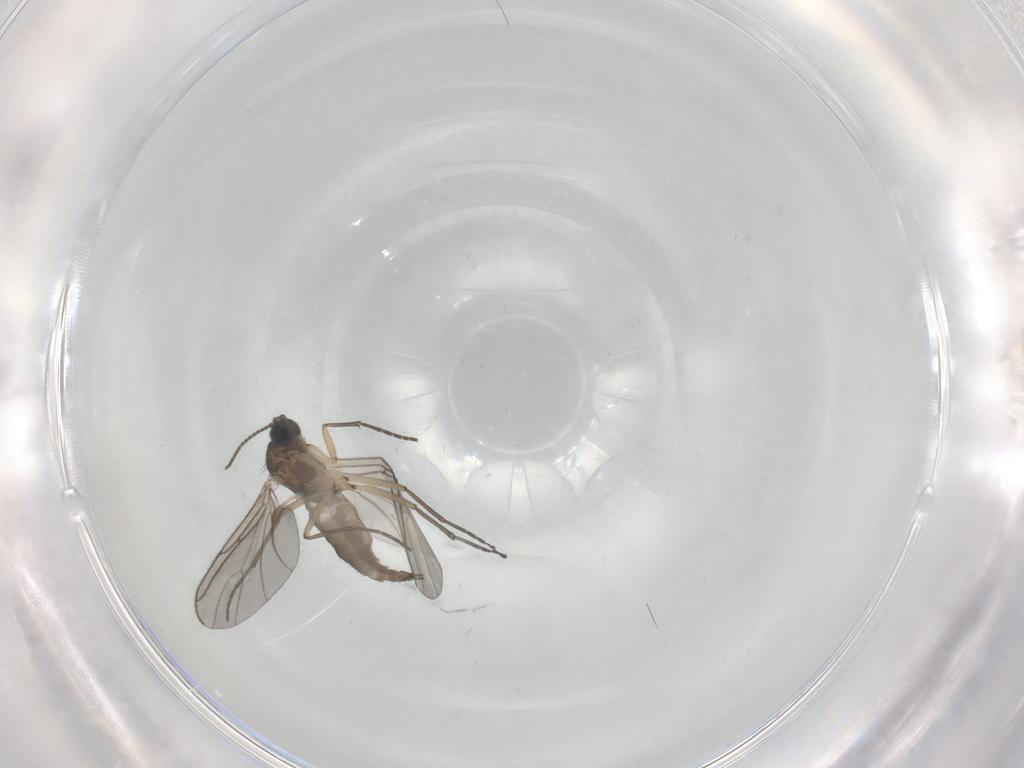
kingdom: Animalia
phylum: Arthropoda
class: Insecta
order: Diptera
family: Sciaridae
